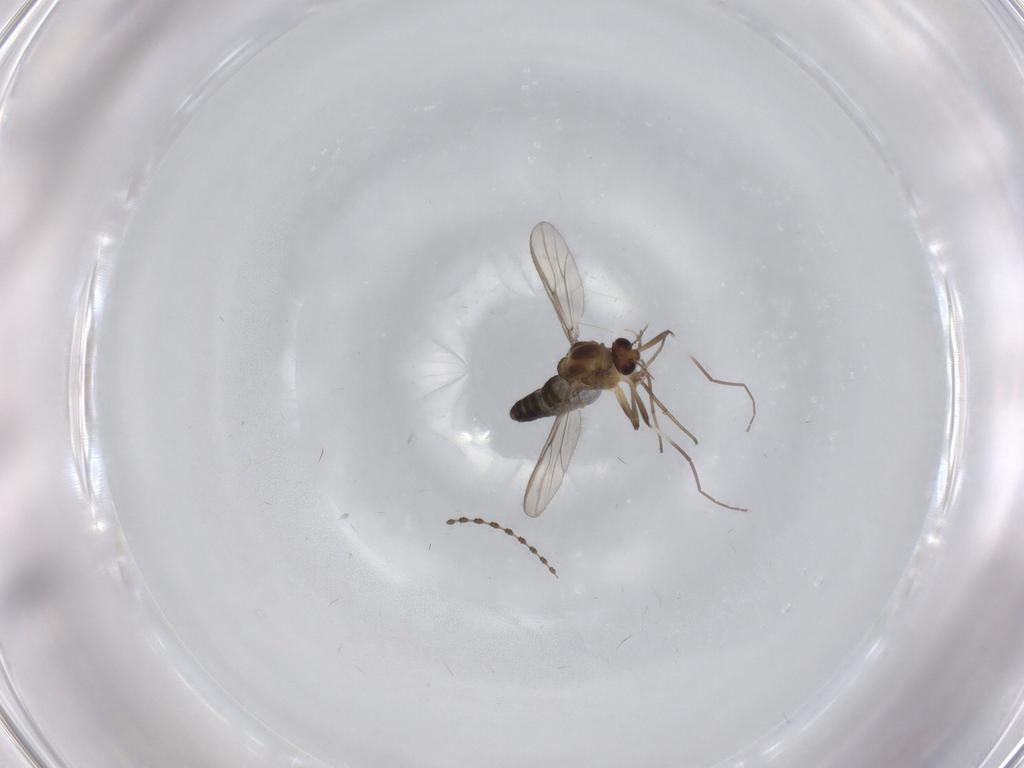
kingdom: Animalia
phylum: Arthropoda
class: Insecta
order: Diptera
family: Chironomidae
